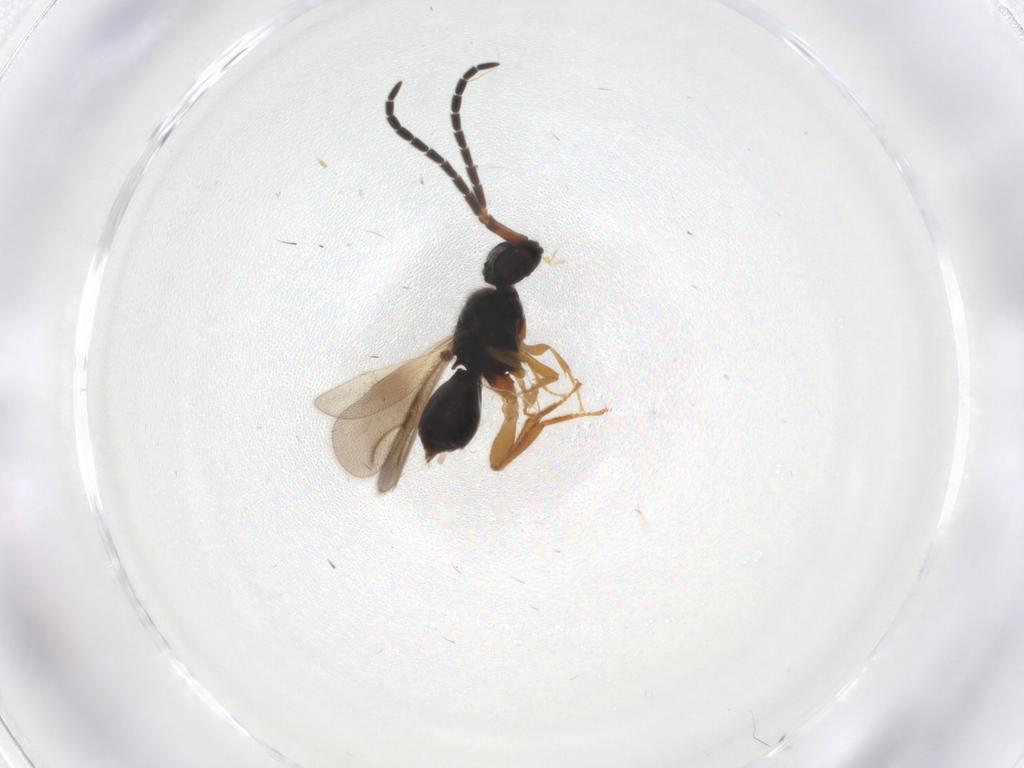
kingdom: Animalia
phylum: Arthropoda
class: Insecta
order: Hymenoptera
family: Ceraphronidae
